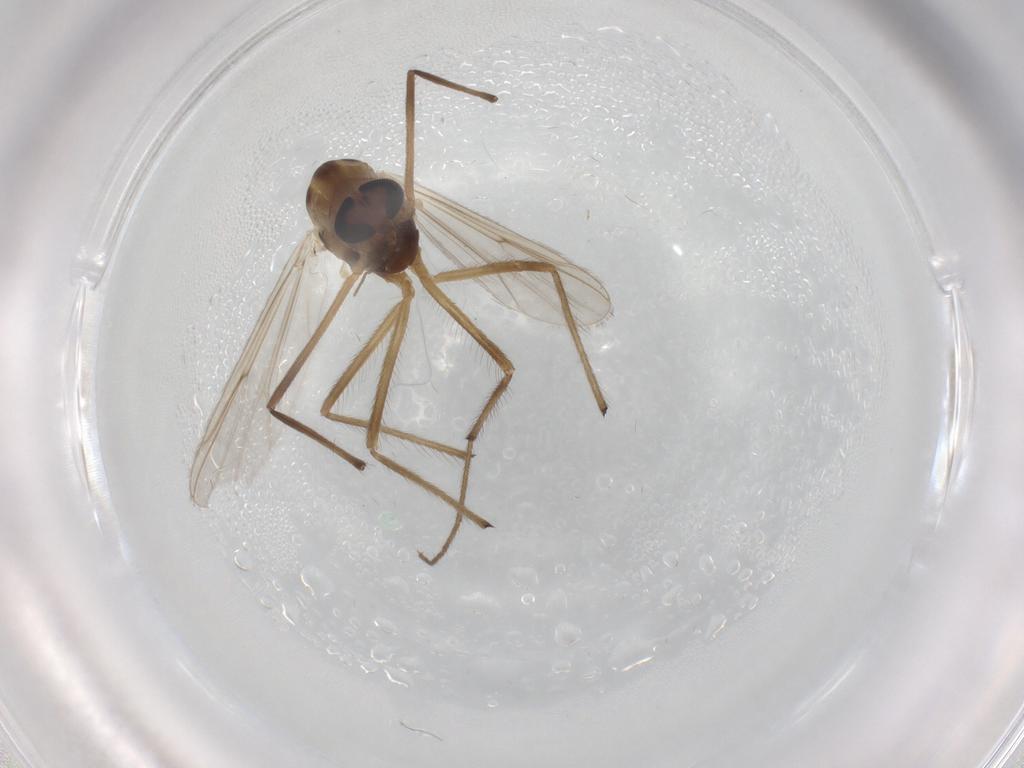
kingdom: Animalia
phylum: Arthropoda
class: Insecta
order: Diptera
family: Chironomidae
